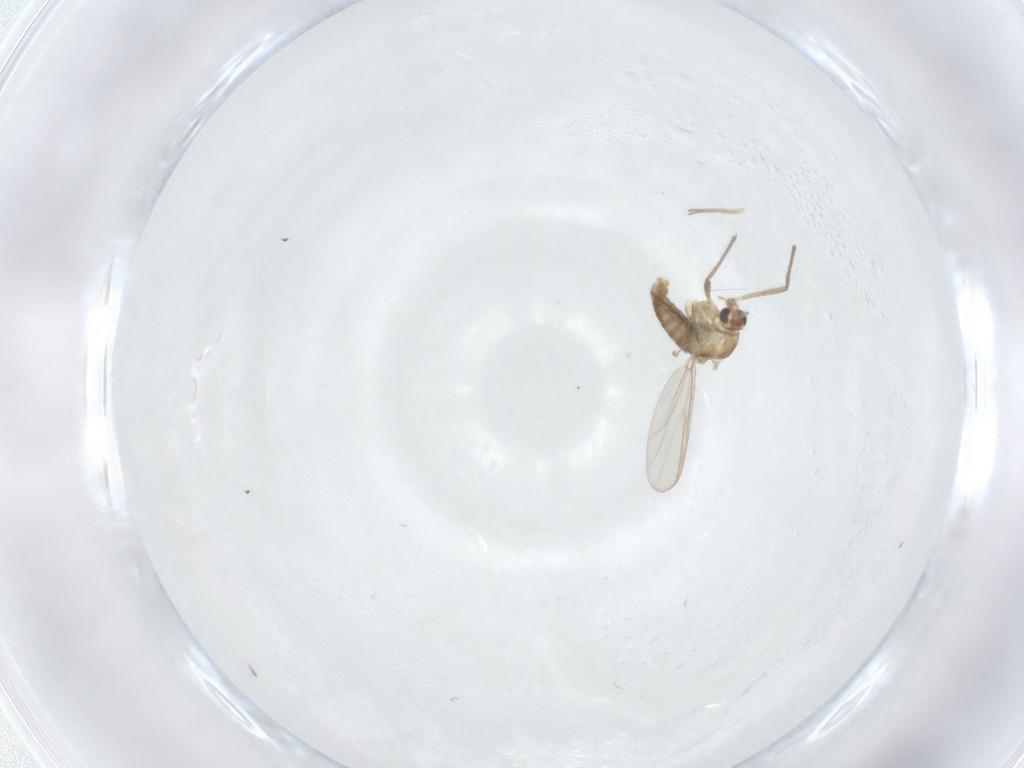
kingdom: Animalia
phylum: Arthropoda
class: Insecta
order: Diptera
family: Chironomidae
